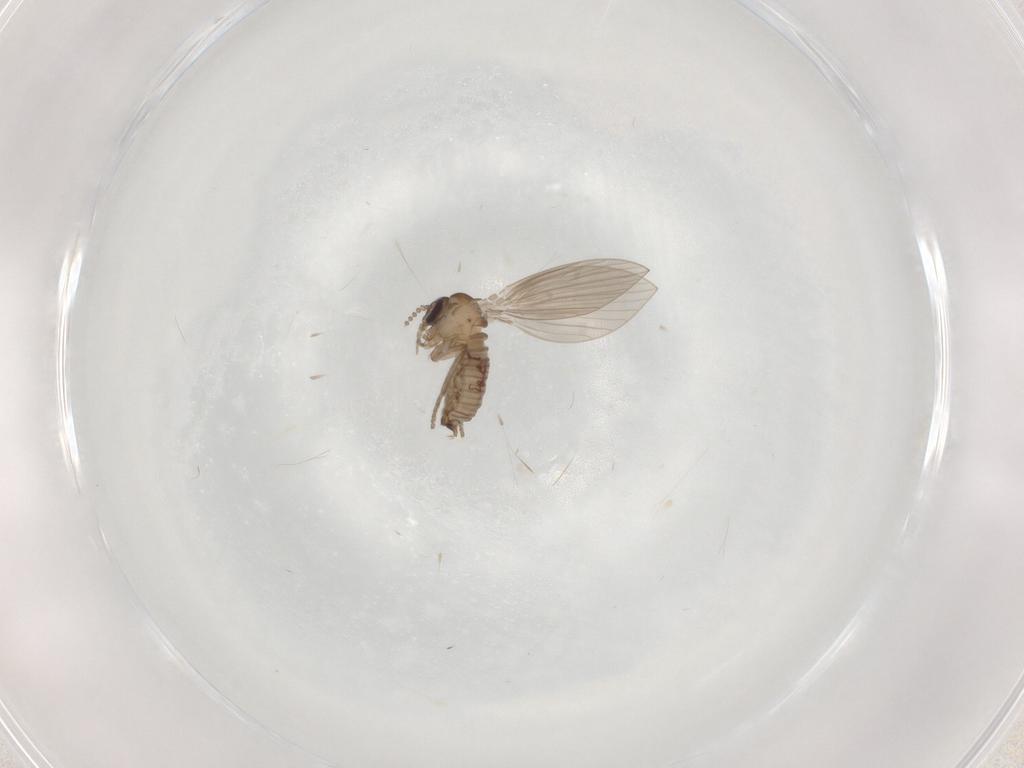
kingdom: Animalia
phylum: Arthropoda
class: Insecta
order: Diptera
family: Psychodidae
